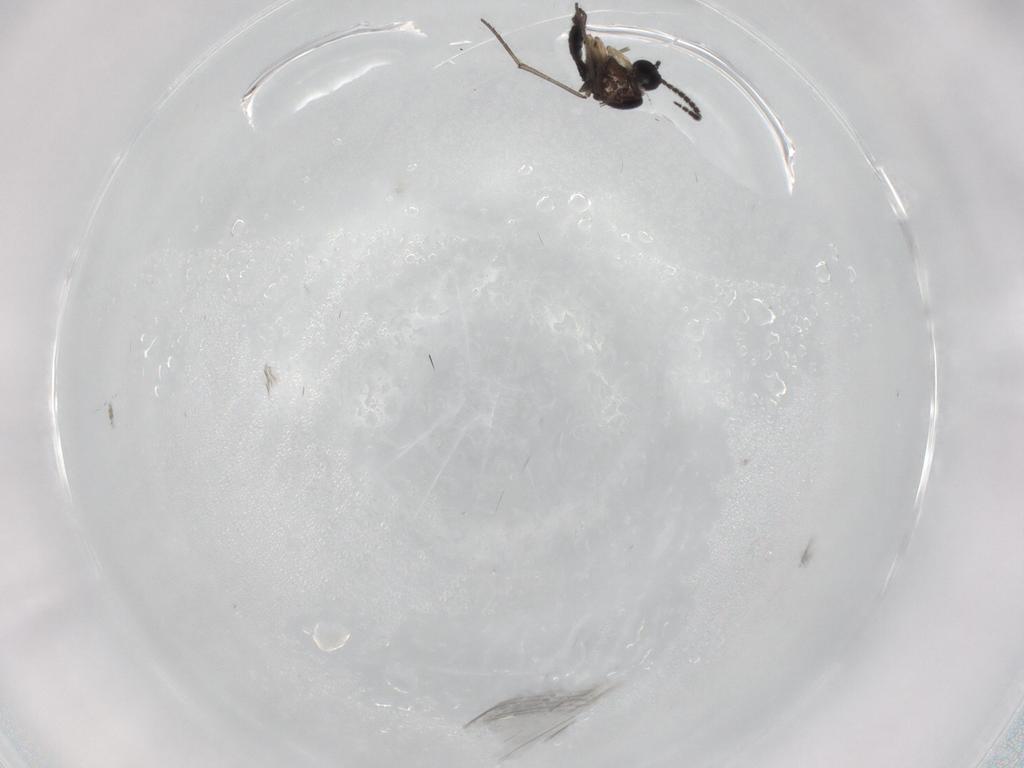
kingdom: Animalia
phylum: Arthropoda
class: Insecta
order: Diptera
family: Sciaridae
